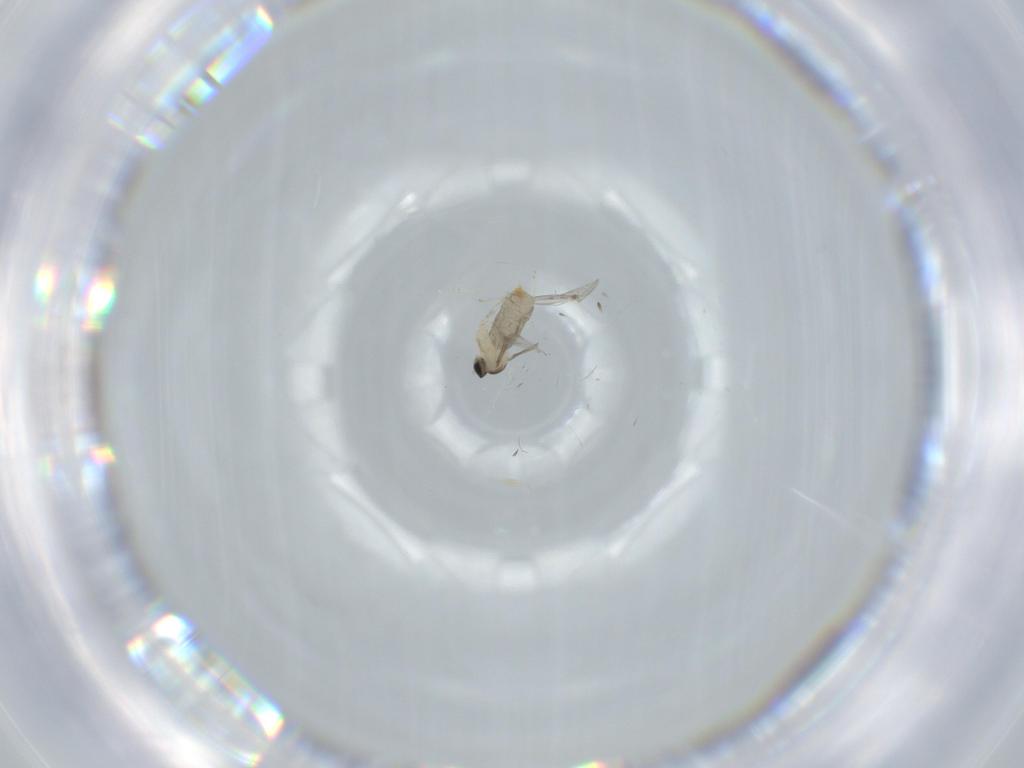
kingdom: Animalia
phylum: Arthropoda
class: Insecta
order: Diptera
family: Cecidomyiidae
